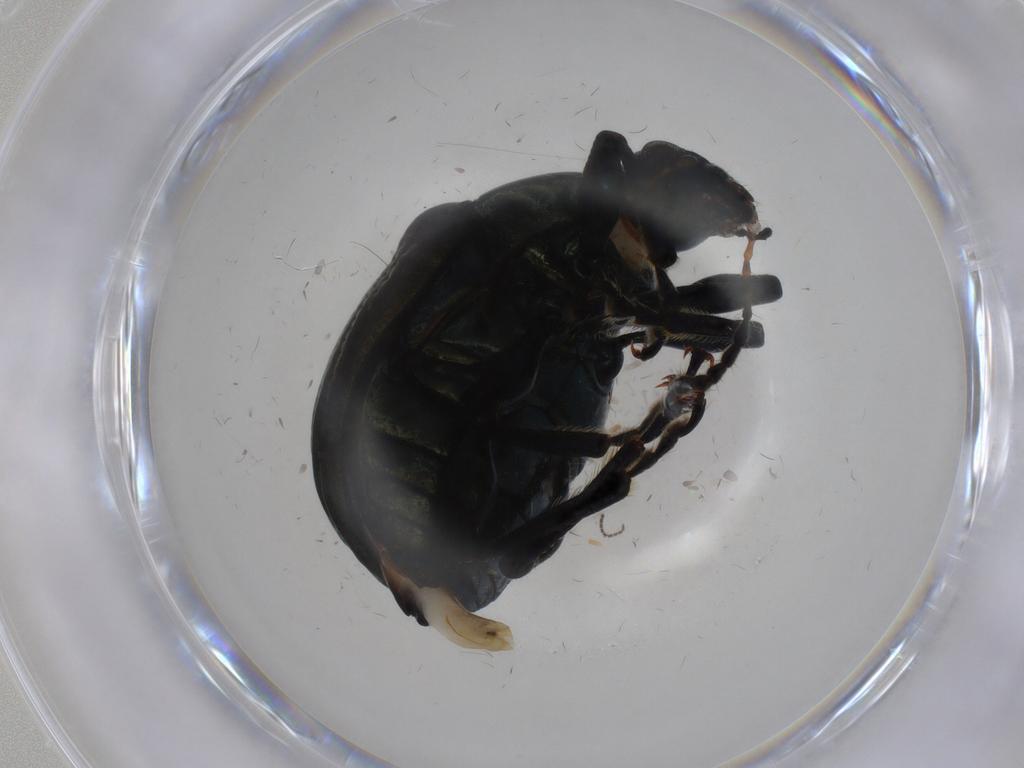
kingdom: Animalia
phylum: Arthropoda
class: Insecta
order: Coleoptera
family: Chrysomelidae
